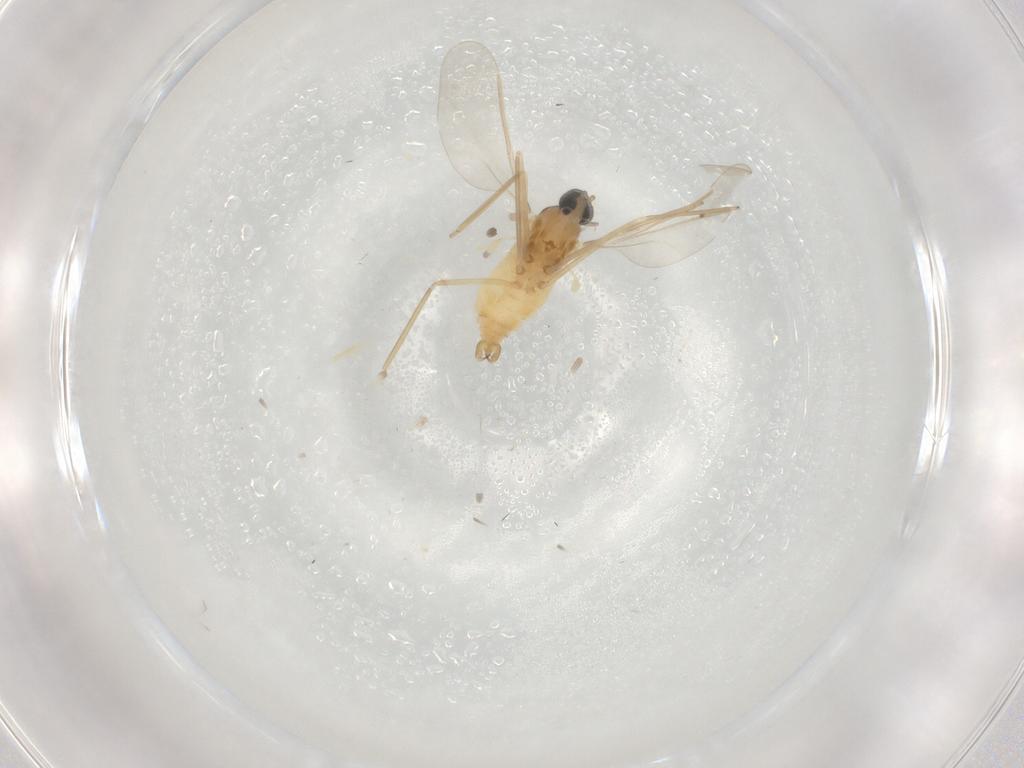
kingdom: Animalia
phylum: Arthropoda
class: Insecta
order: Diptera
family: Cecidomyiidae
